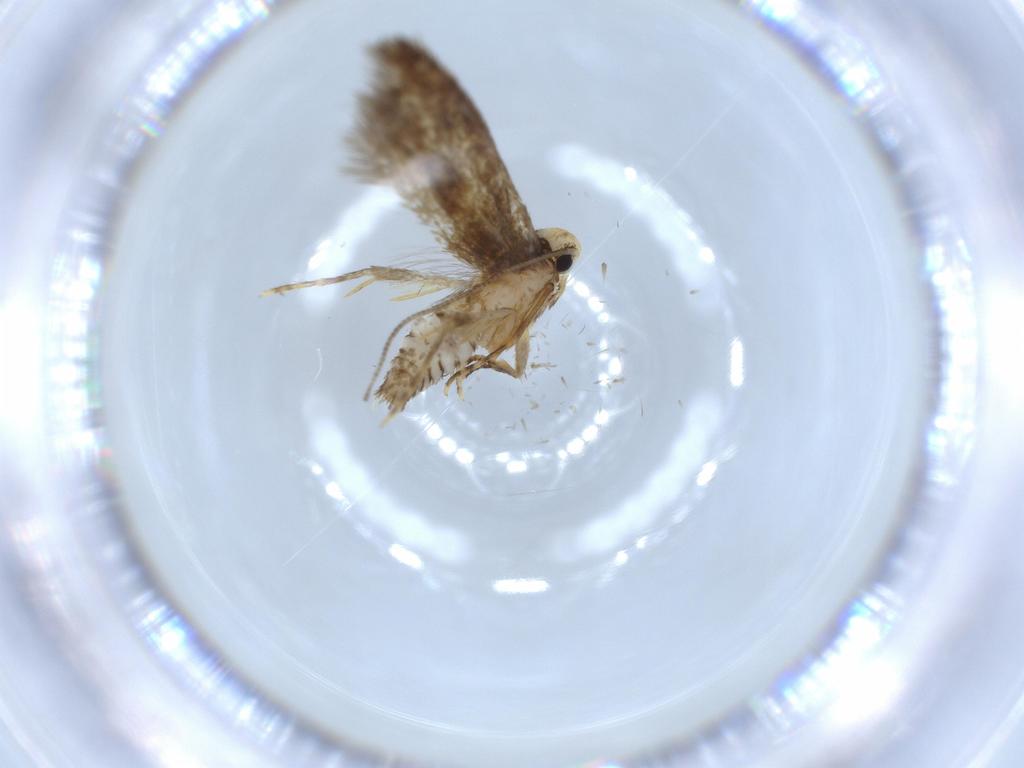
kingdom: Animalia
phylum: Arthropoda
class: Insecta
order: Lepidoptera
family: Tineidae
